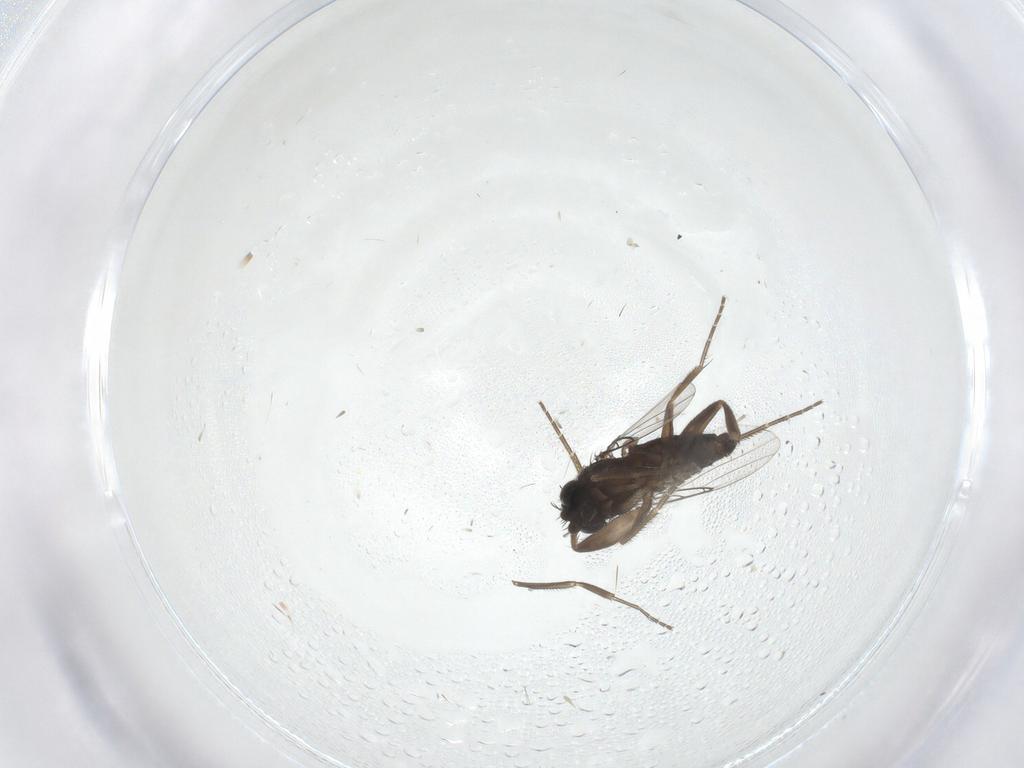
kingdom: Animalia
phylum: Arthropoda
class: Insecta
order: Diptera
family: Phoridae
